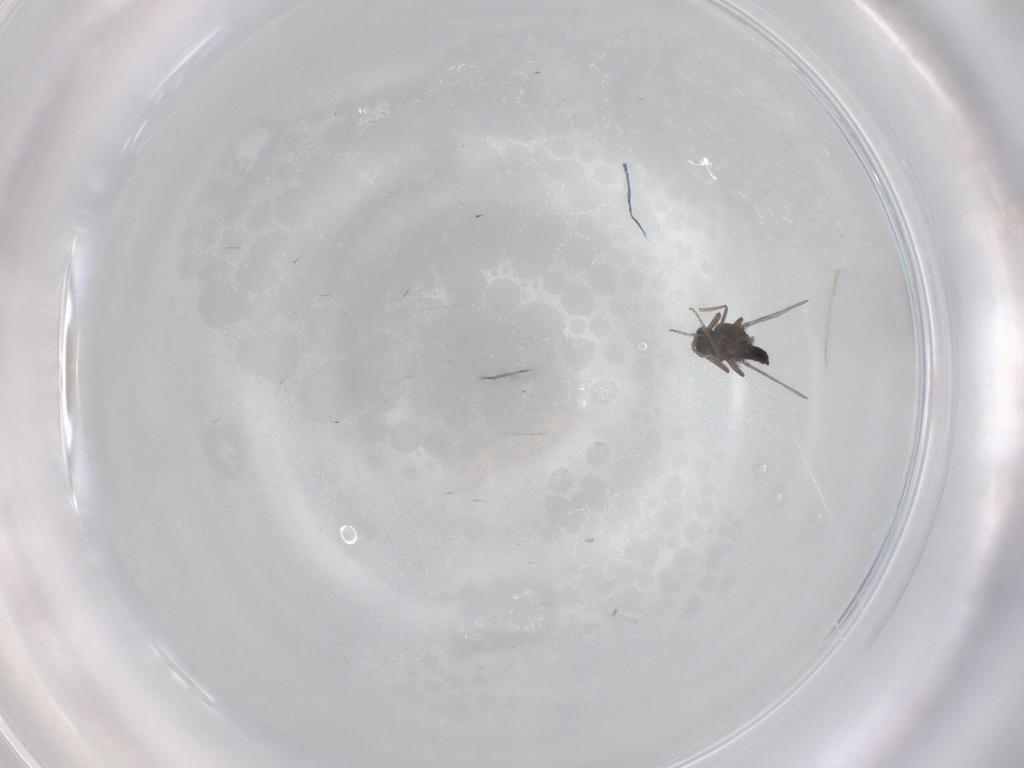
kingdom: Animalia
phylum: Arthropoda
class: Insecta
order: Diptera
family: Ceratopogonidae
